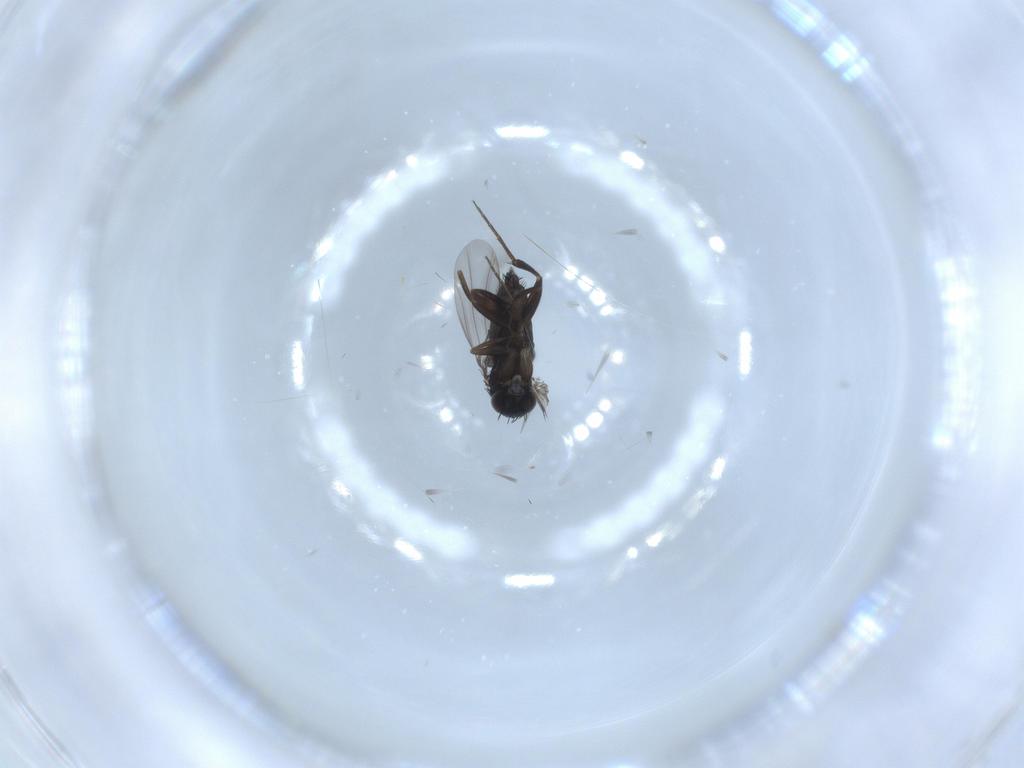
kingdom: Animalia
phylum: Arthropoda
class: Insecta
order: Diptera
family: Phoridae
